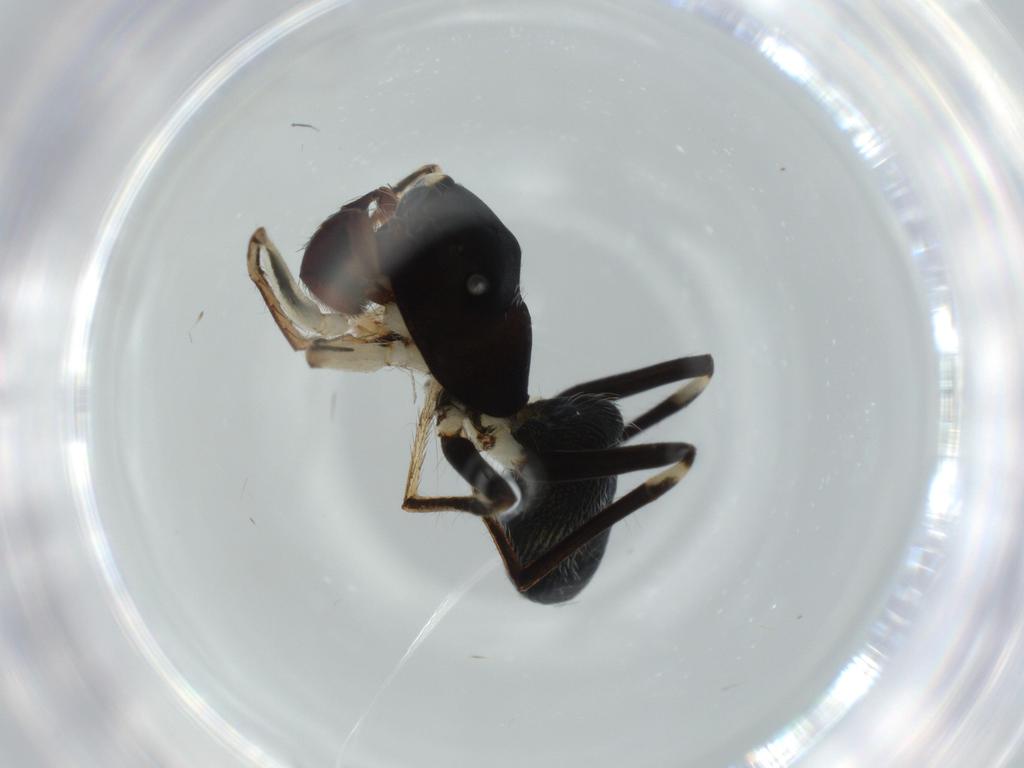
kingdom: Animalia
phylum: Arthropoda
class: Arachnida
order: Araneae
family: Salticidae
